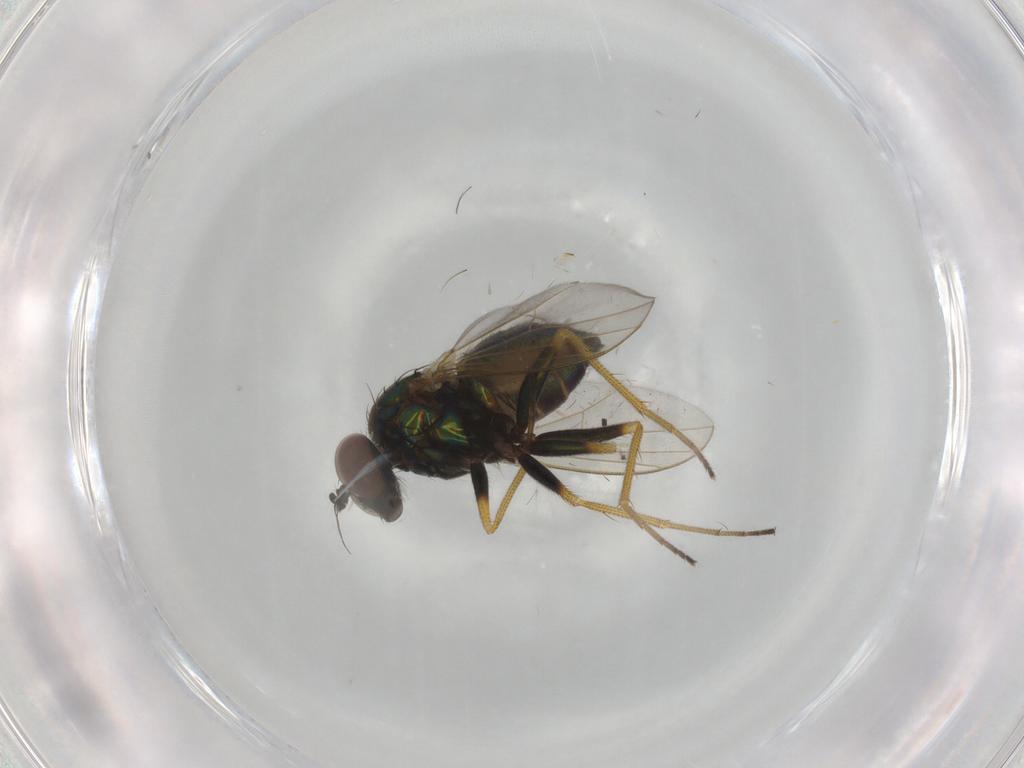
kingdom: Animalia
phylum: Arthropoda
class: Insecta
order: Diptera
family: Dolichopodidae
